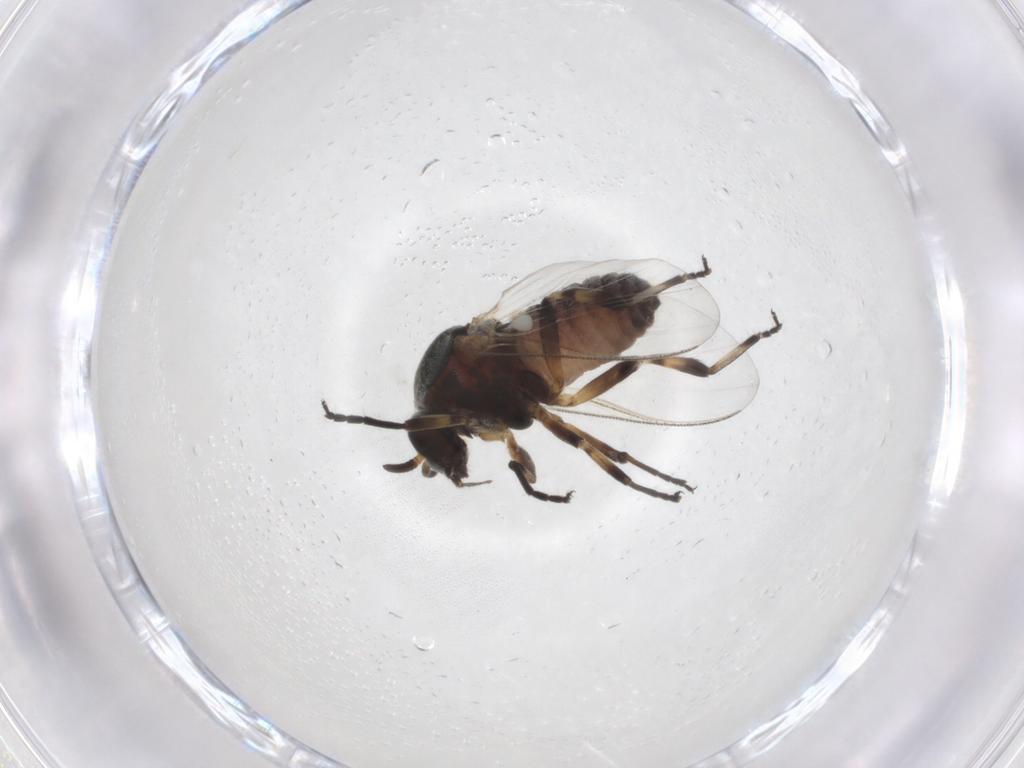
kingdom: Animalia
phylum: Arthropoda
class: Insecta
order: Diptera
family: Simuliidae
